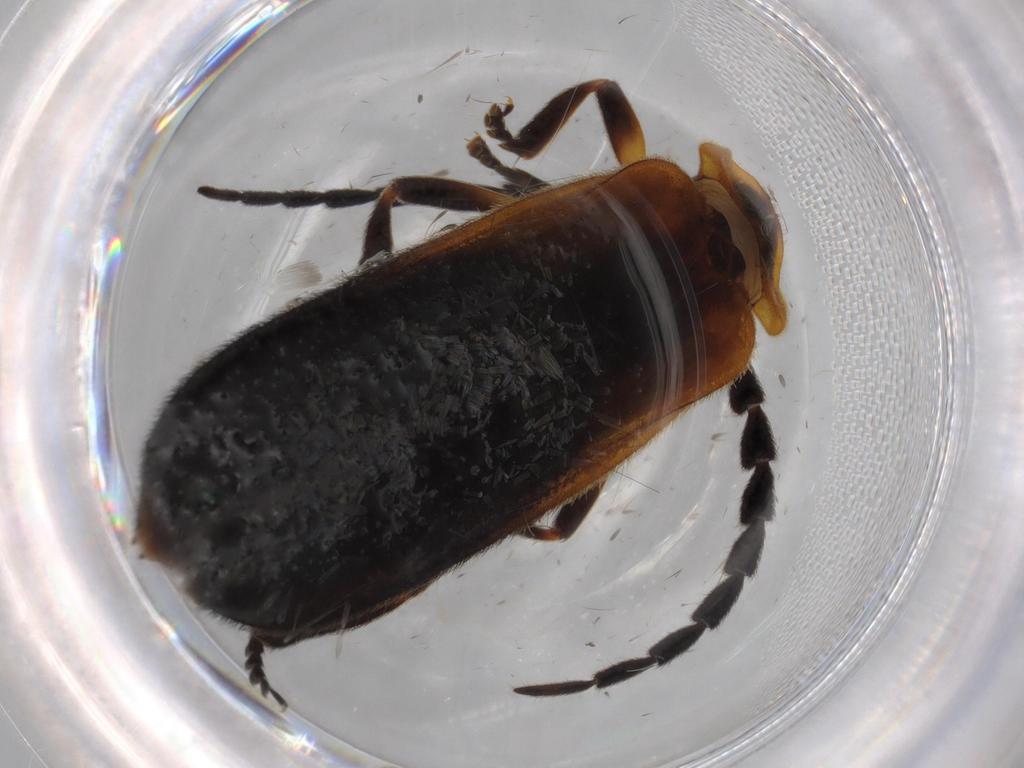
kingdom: Animalia
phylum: Arthropoda
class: Insecta
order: Coleoptera
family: Lycidae
